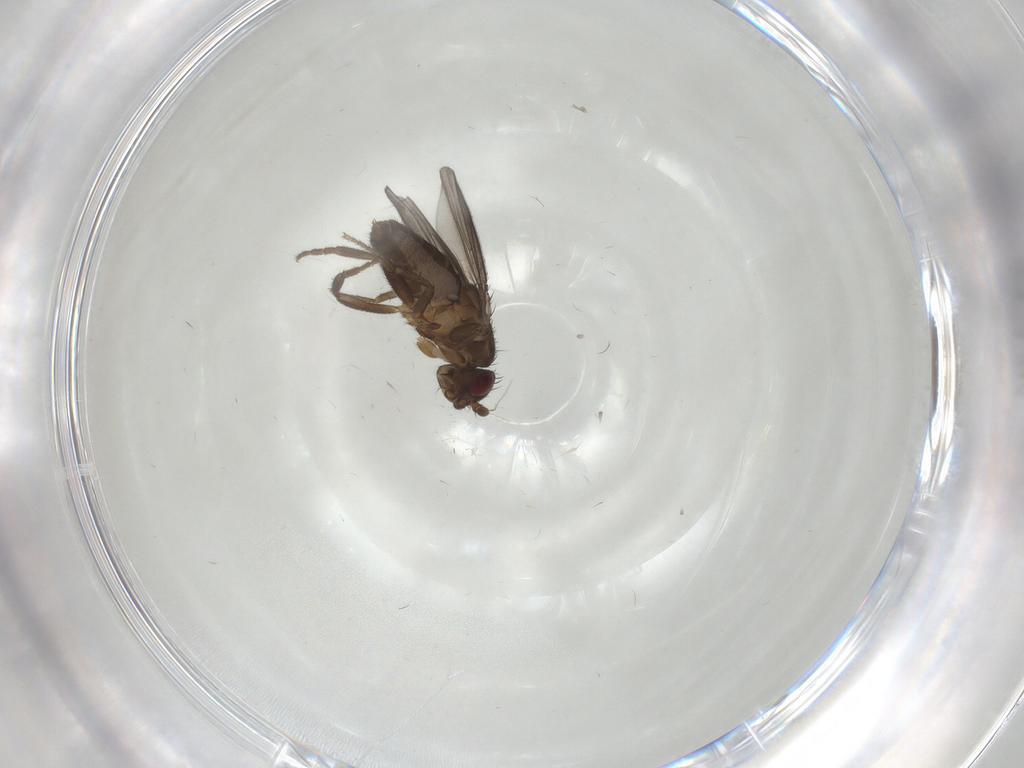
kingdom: Animalia
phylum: Arthropoda
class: Insecta
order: Diptera
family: Sphaeroceridae
